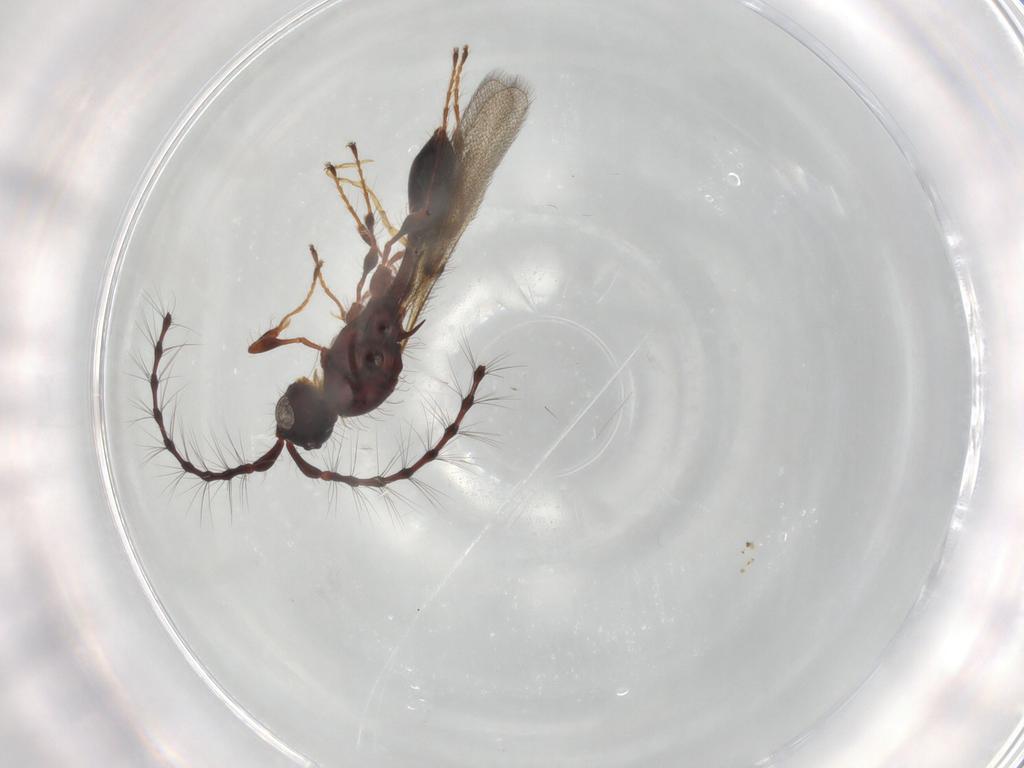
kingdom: Animalia
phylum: Arthropoda
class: Insecta
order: Hymenoptera
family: Diapriidae
